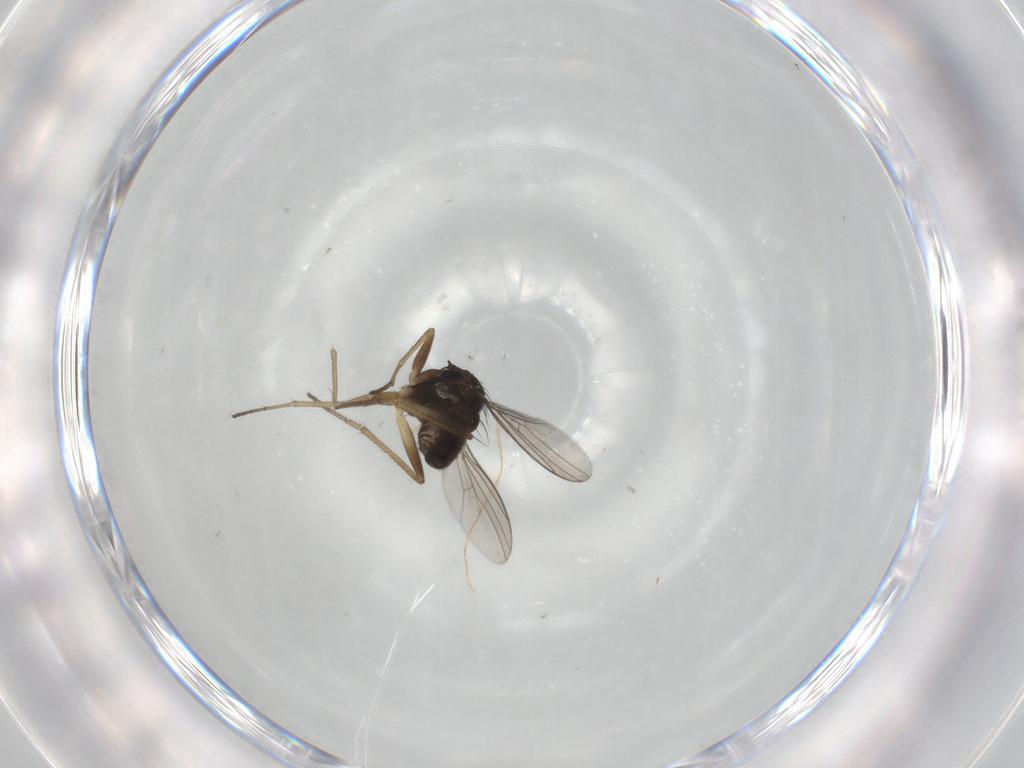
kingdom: Animalia
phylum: Arthropoda
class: Insecta
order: Diptera
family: Dolichopodidae
